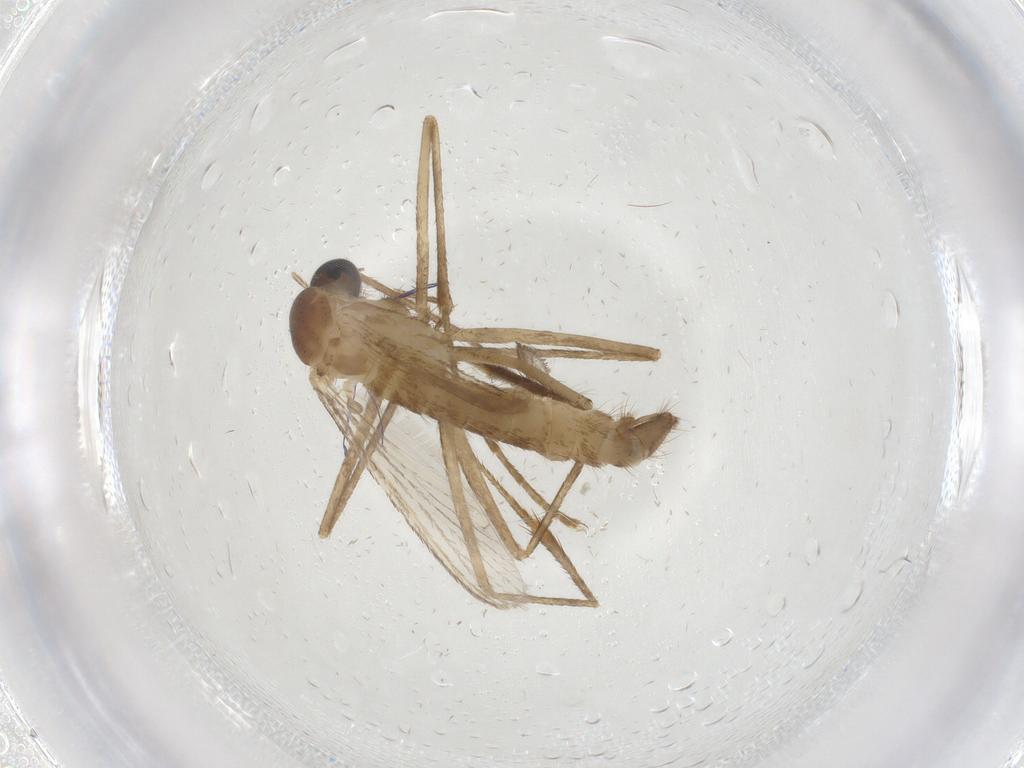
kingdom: Animalia
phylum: Arthropoda
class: Insecta
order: Diptera
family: Culicidae
